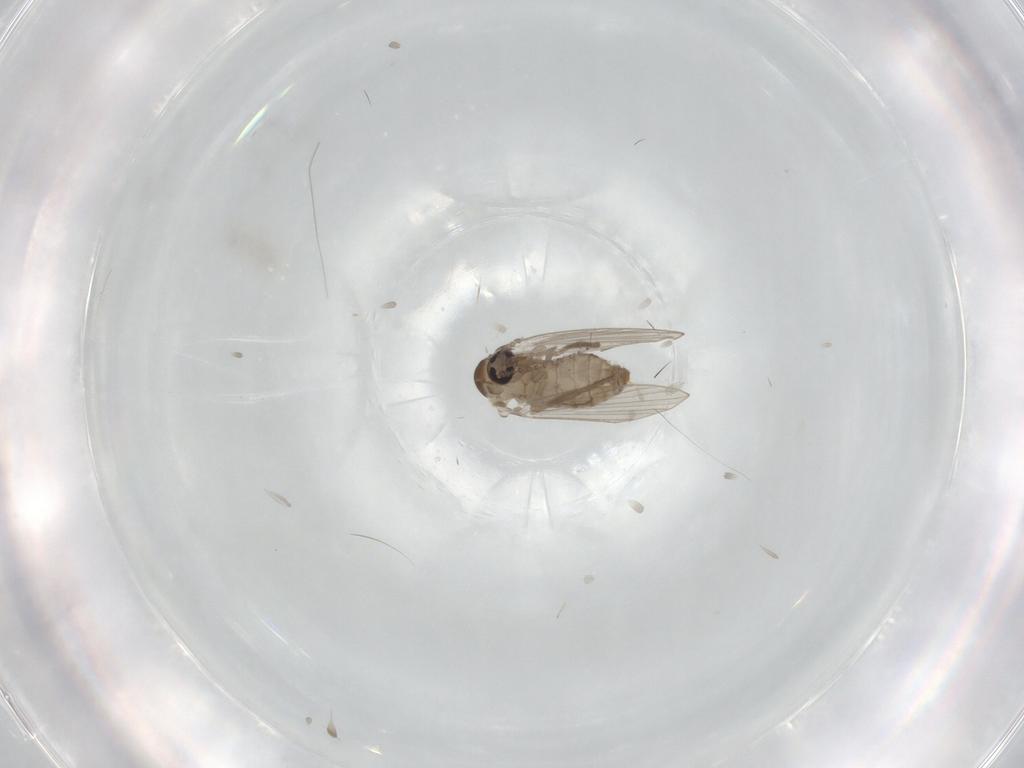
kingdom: Animalia
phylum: Arthropoda
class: Insecta
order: Diptera
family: Psychodidae
